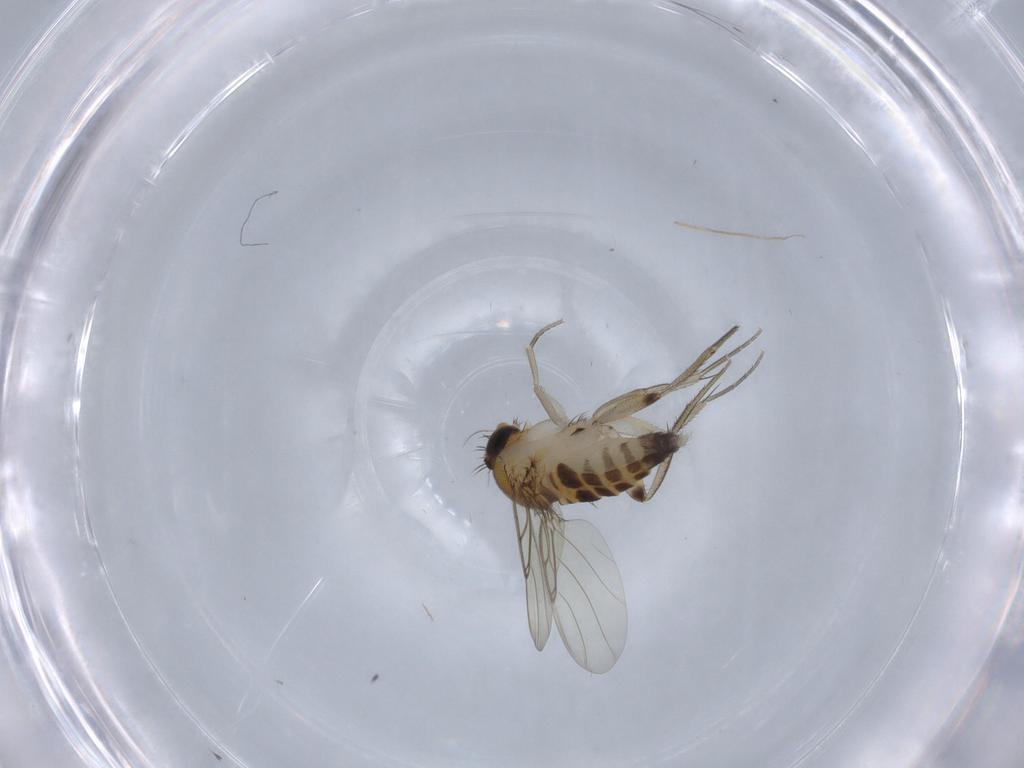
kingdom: Animalia
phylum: Arthropoda
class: Insecta
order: Diptera
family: Phoridae
